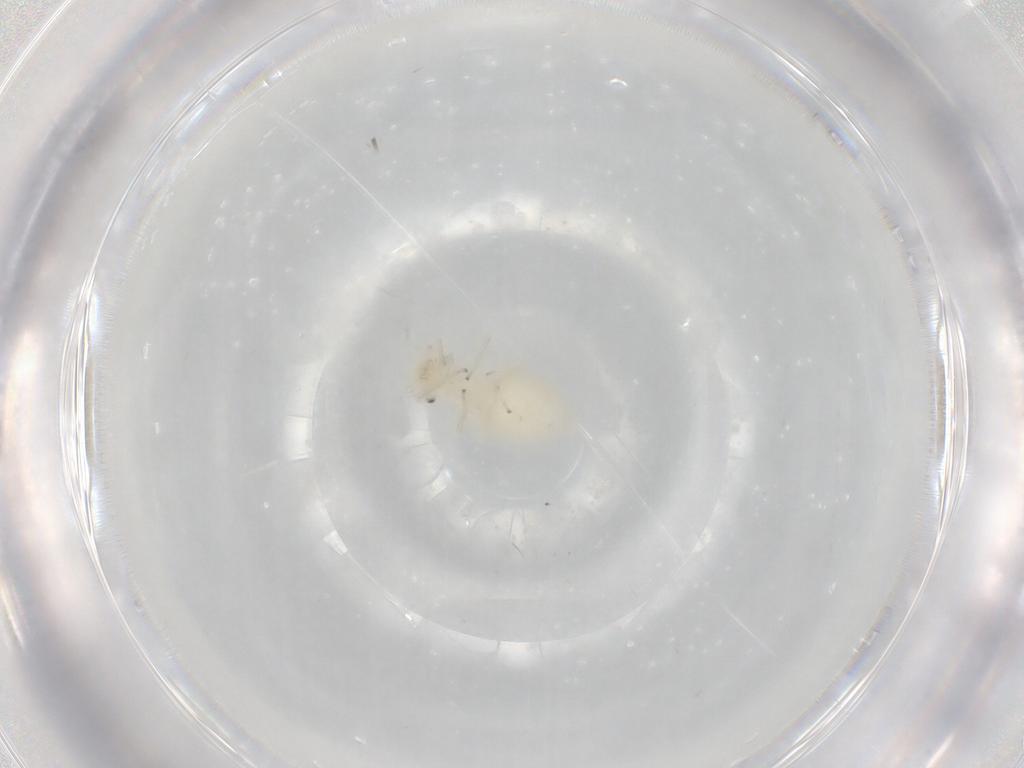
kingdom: Animalia
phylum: Arthropoda
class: Insecta
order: Psocodea
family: Caeciliusidae
